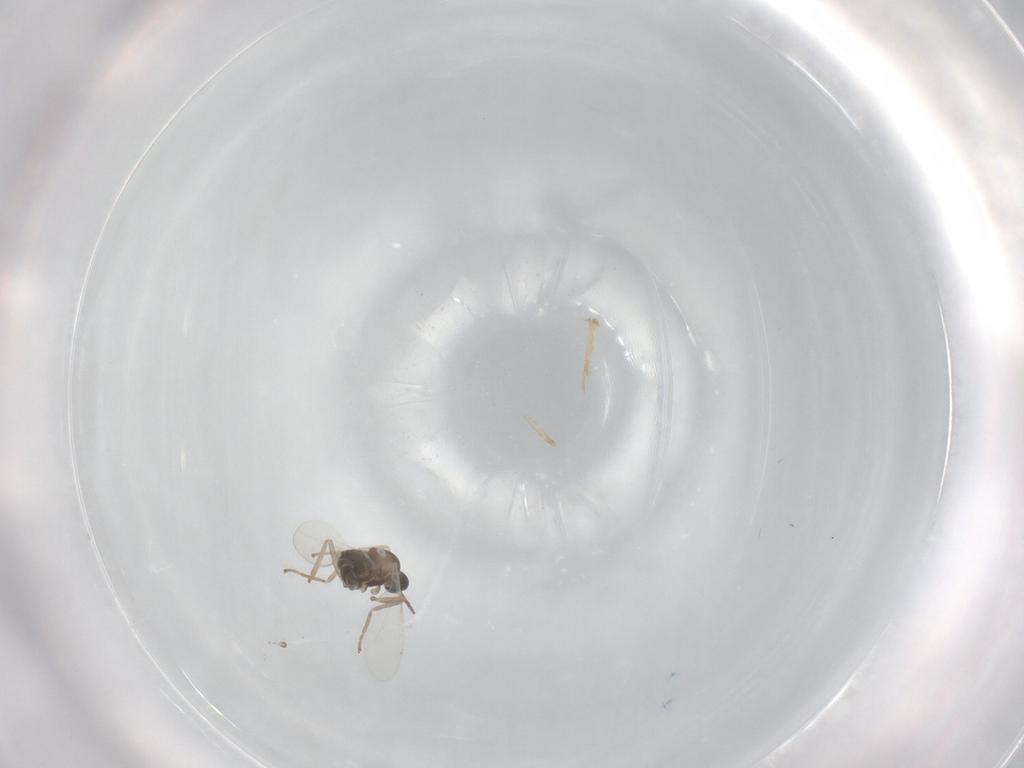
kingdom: Animalia
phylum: Arthropoda
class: Insecta
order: Diptera
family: Cecidomyiidae
